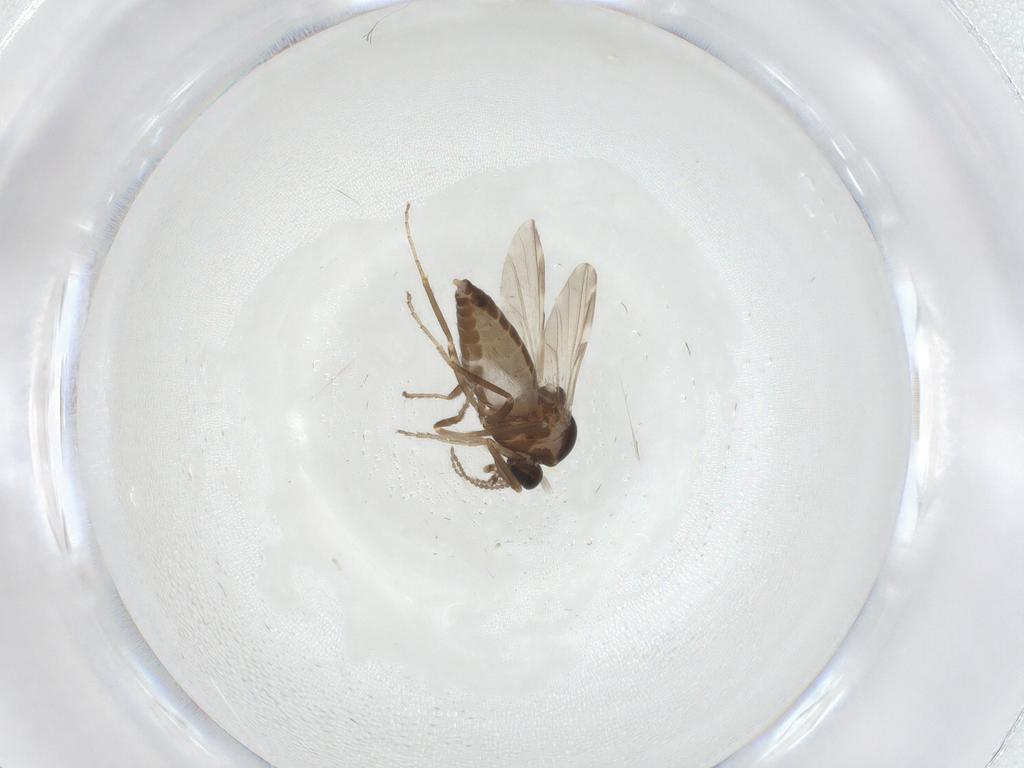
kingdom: Animalia
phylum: Arthropoda
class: Insecta
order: Diptera
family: Ceratopogonidae
